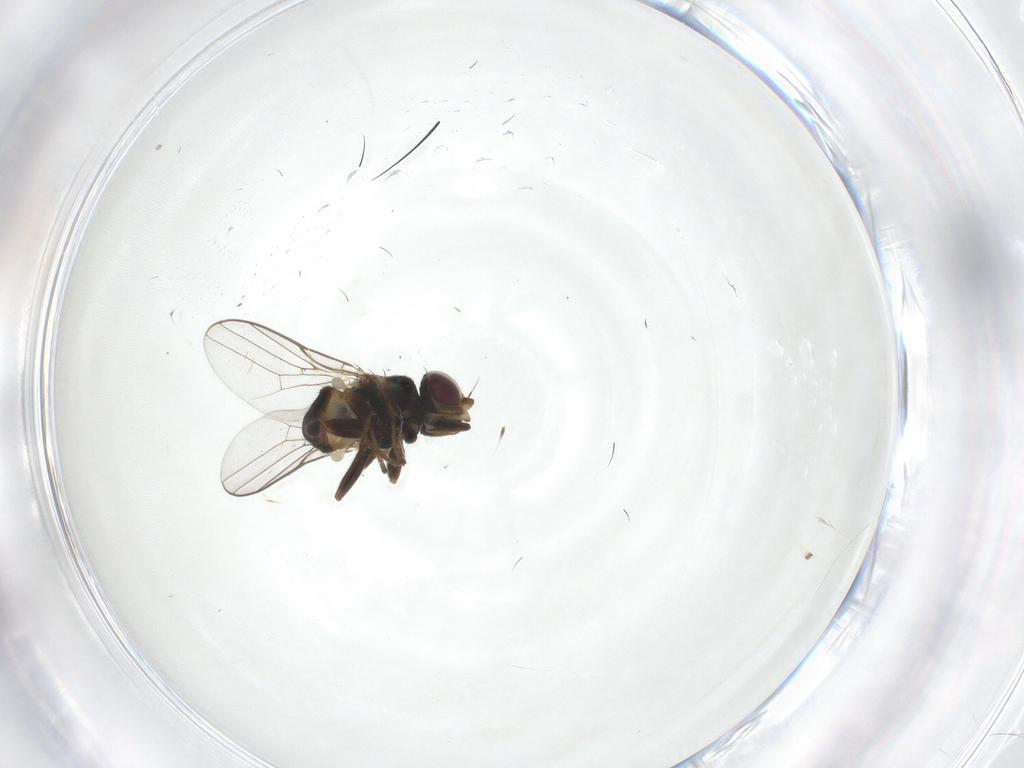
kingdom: Animalia
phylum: Arthropoda
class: Insecta
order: Diptera
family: Chloropidae
